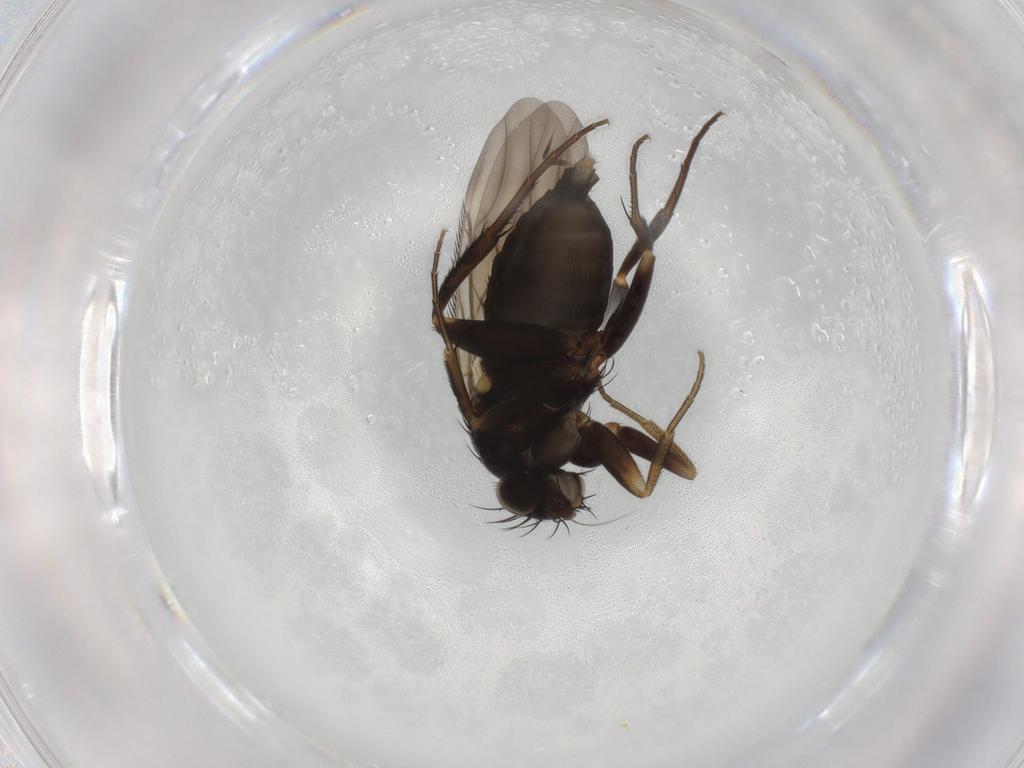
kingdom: Animalia
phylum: Arthropoda
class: Insecta
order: Diptera
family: Phoridae
